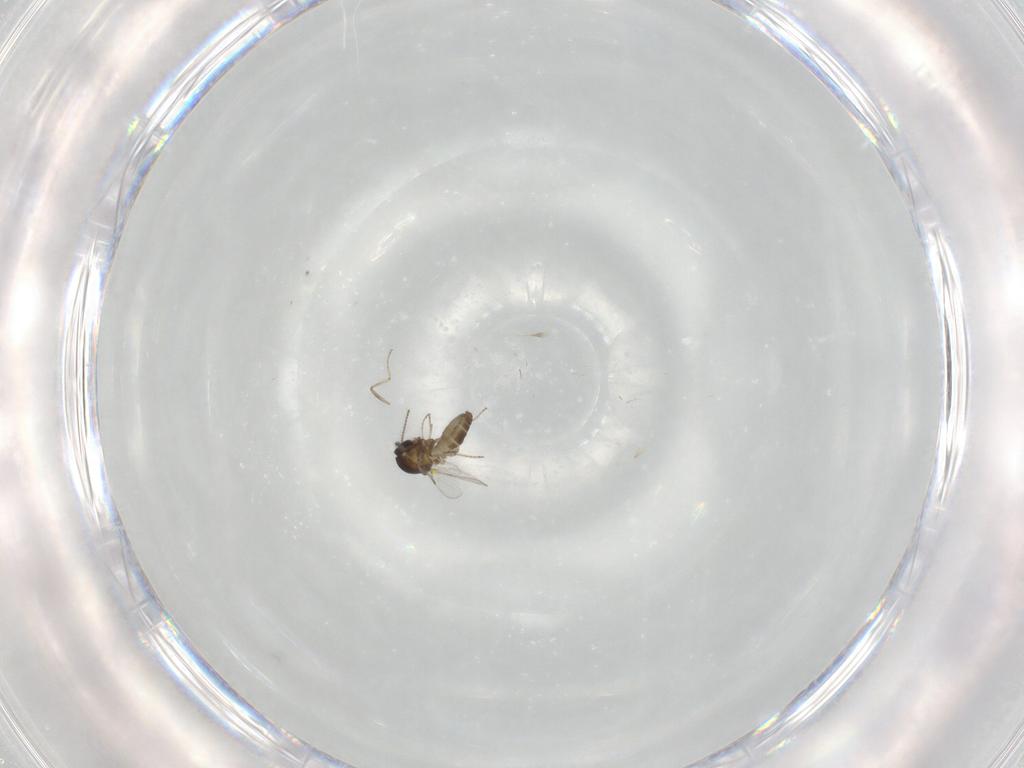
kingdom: Animalia
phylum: Arthropoda
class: Insecta
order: Diptera
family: Ceratopogonidae
